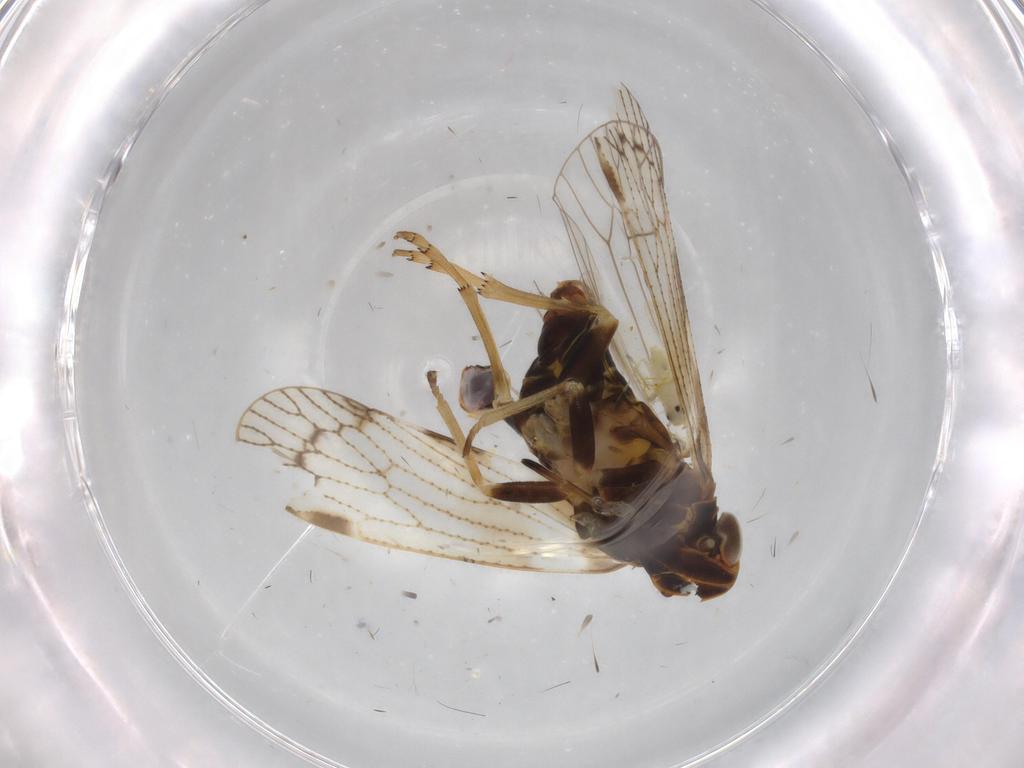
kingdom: Animalia
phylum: Arthropoda
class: Insecta
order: Hemiptera
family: Cixiidae
